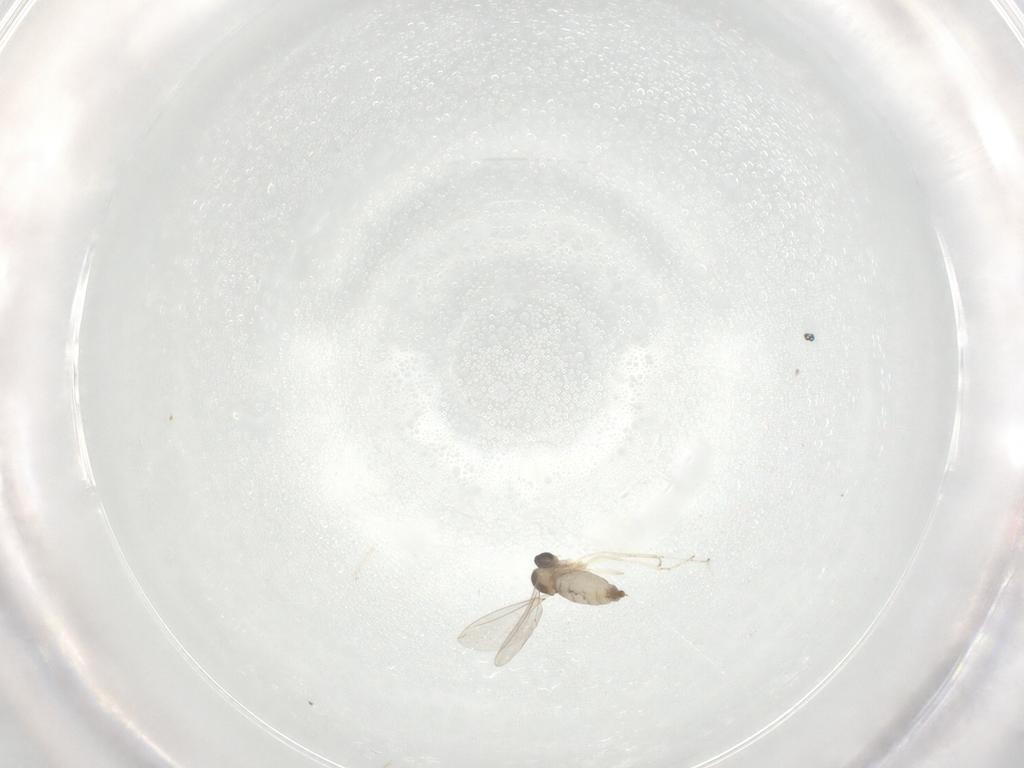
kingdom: Animalia
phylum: Arthropoda
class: Insecta
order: Diptera
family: Cecidomyiidae
